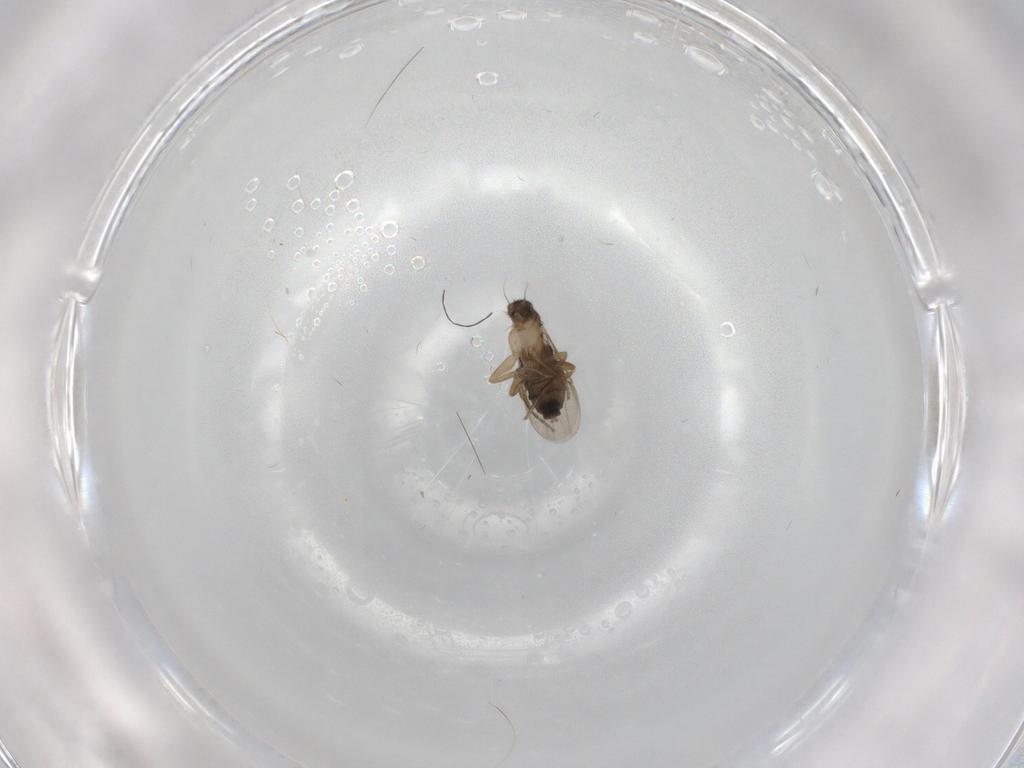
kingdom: Animalia
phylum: Arthropoda
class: Insecta
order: Diptera
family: Phoridae
